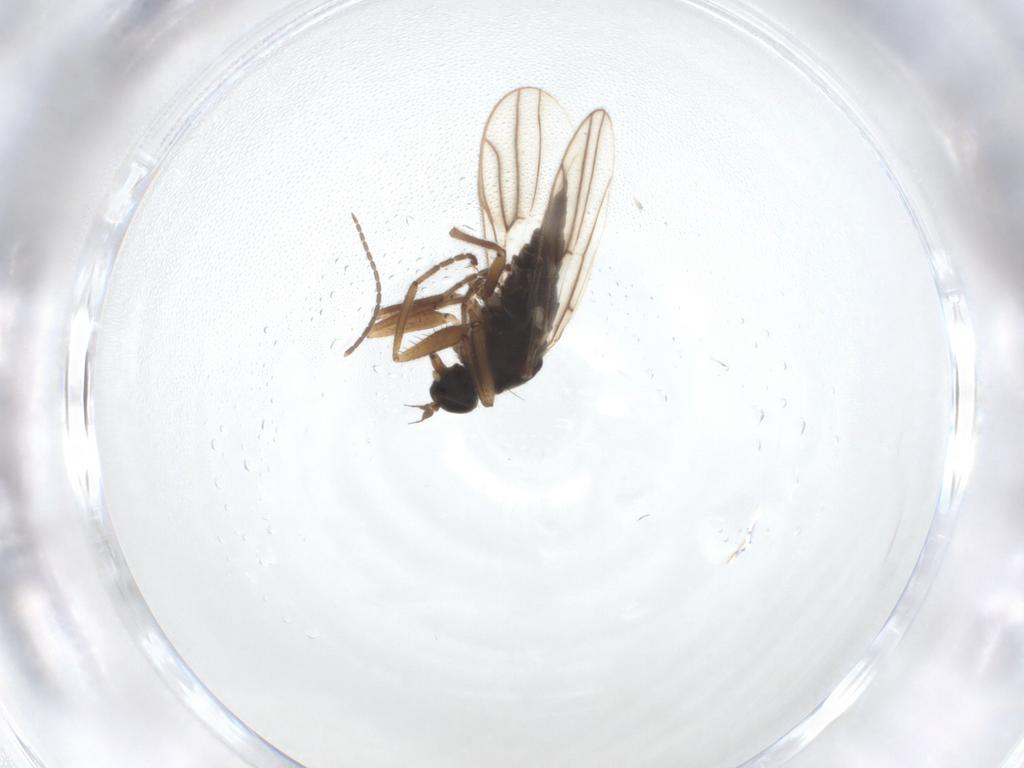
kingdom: Animalia
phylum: Arthropoda
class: Insecta
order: Diptera
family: Hybotidae
